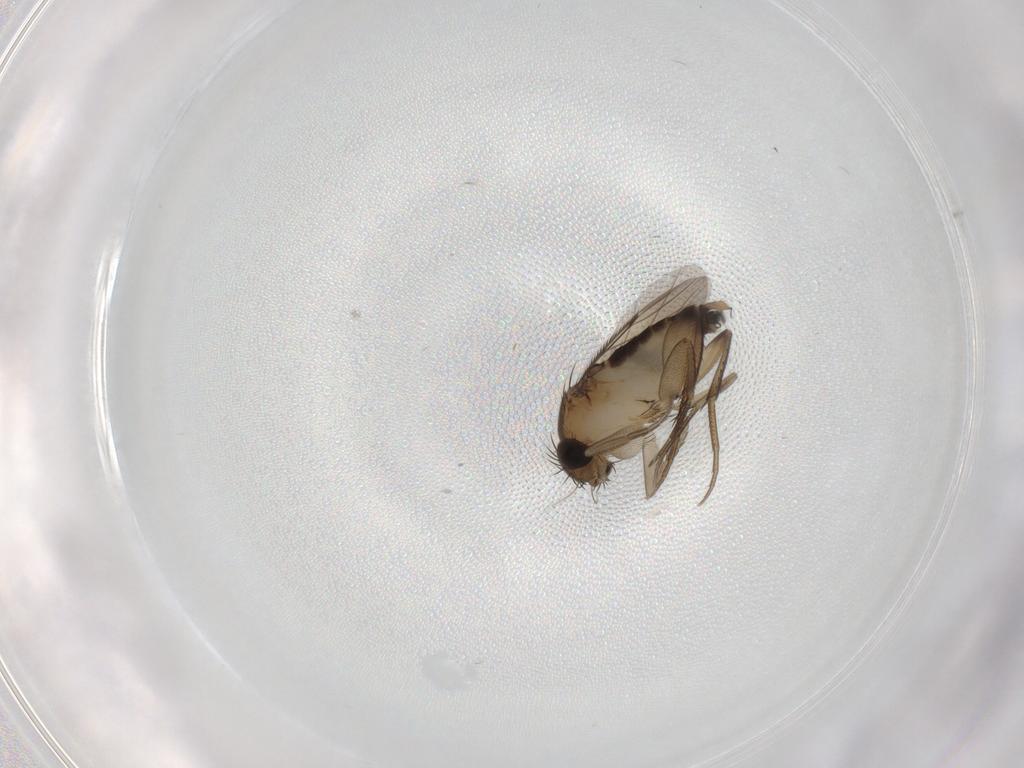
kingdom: Animalia
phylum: Arthropoda
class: Insecta
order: Diptera
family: Phoridae
